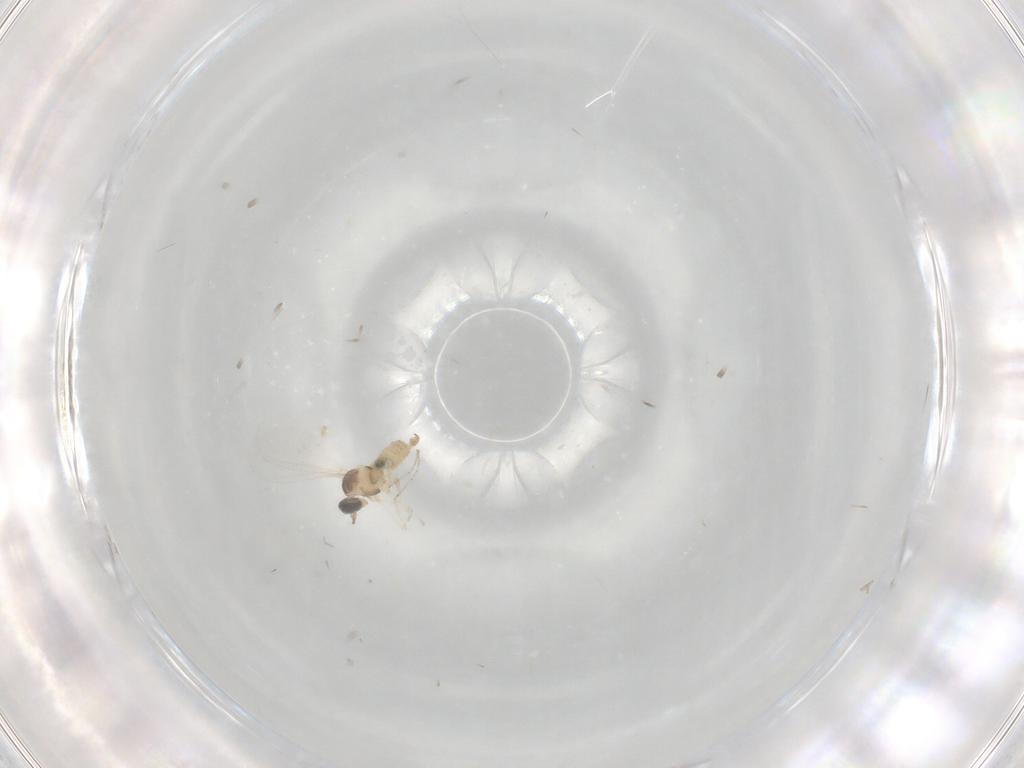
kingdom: Animalia
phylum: Arthropoda
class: Insecta
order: Diptera
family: Cecidomyiidae
